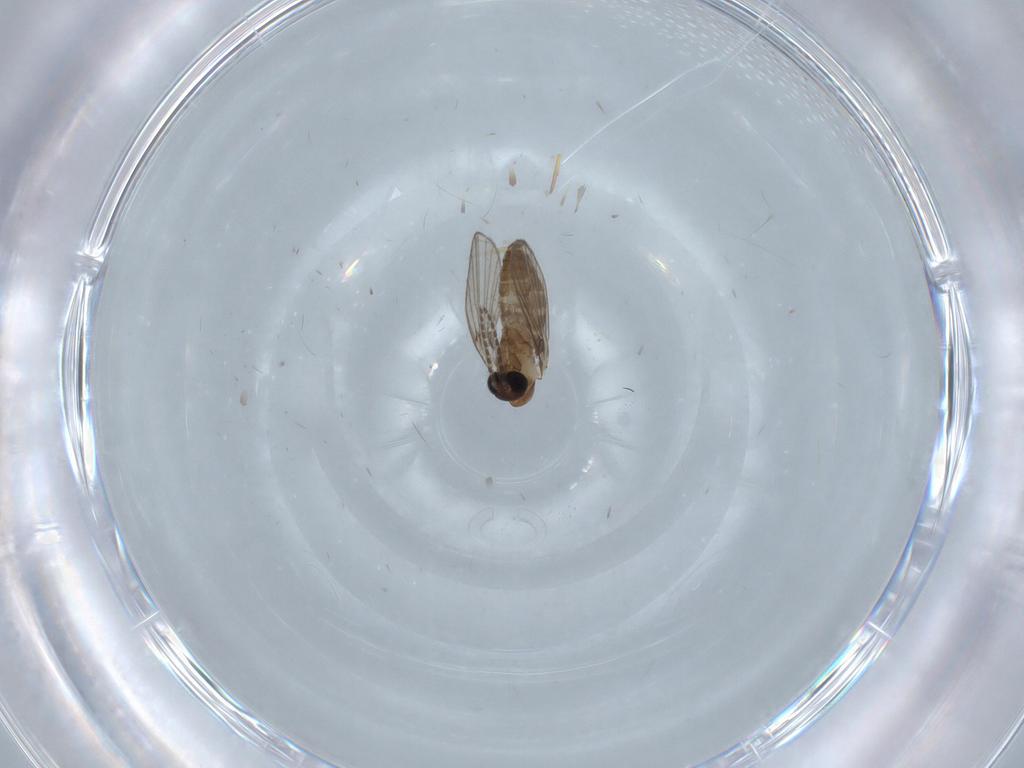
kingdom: Animalia
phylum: Arthropoda
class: Insecta
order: Diptera
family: Psychodidae
